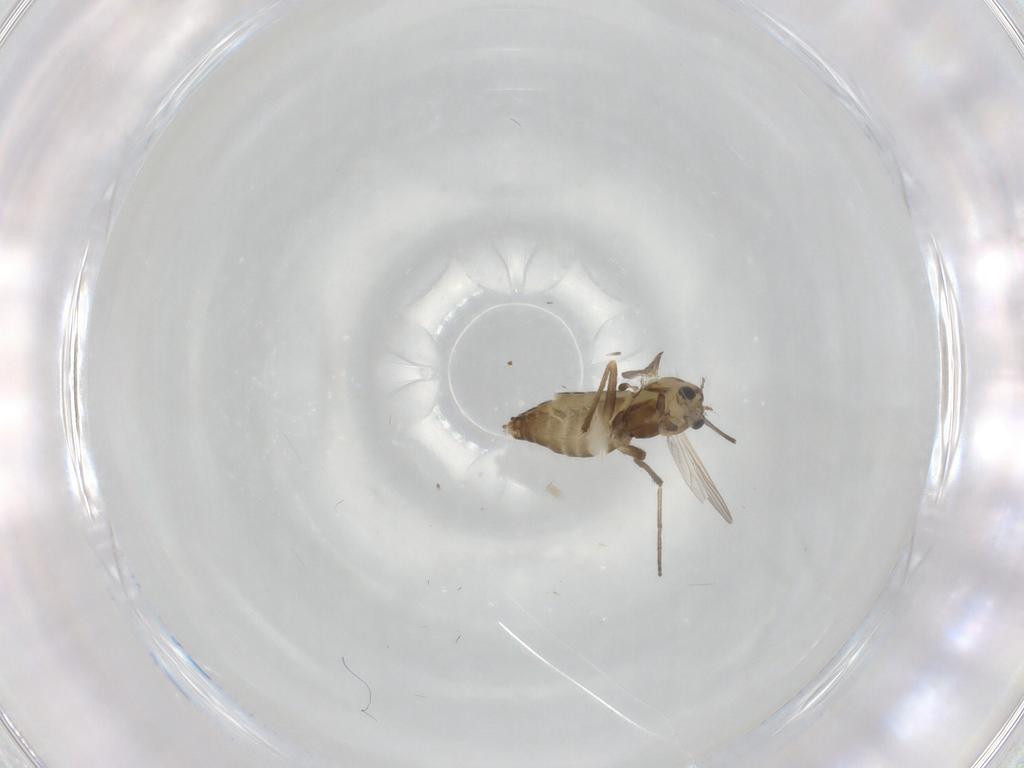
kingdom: Animalia
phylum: Arthropoda
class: Insecta
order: Diptera
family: Chironomidae
